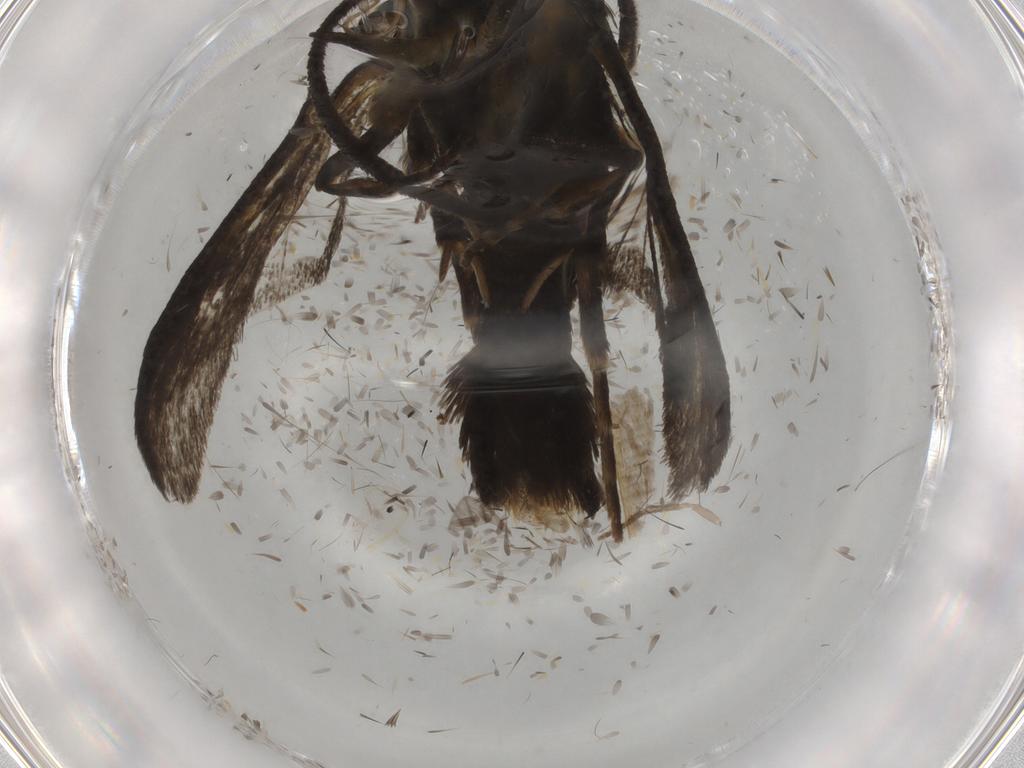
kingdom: Animalia
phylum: Arthropoda
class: Insecta
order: Lepidoptera
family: Sesiidae
